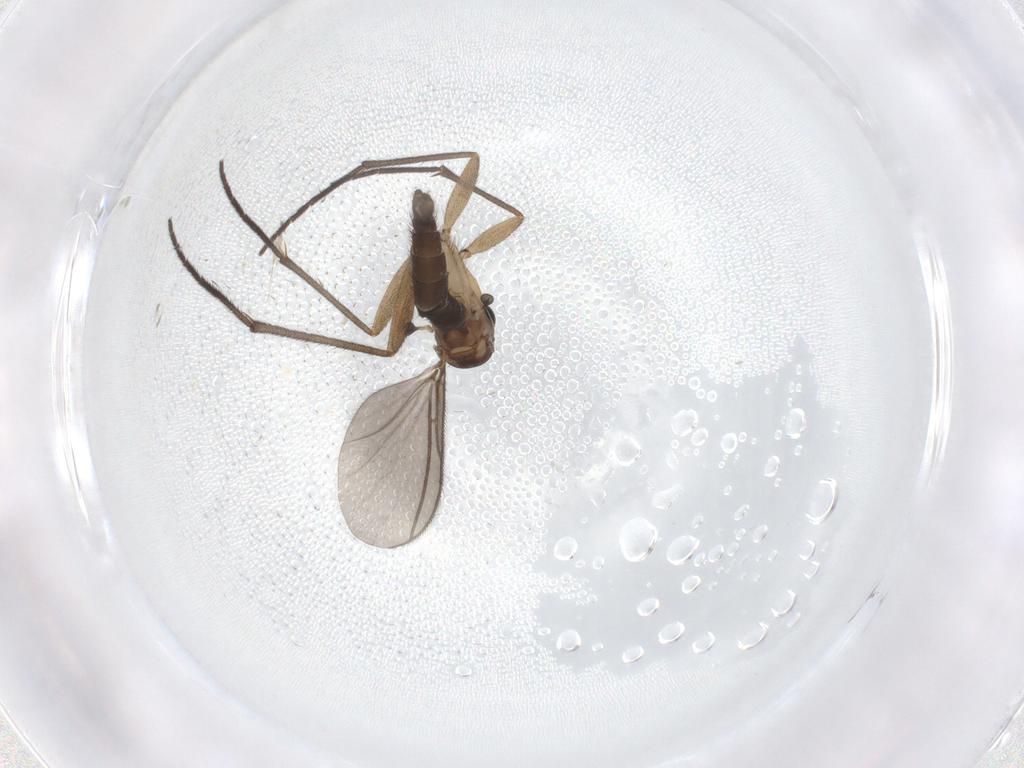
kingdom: Animalia
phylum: Arthropoda
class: Insecta
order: Diptera
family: Sciaridae
